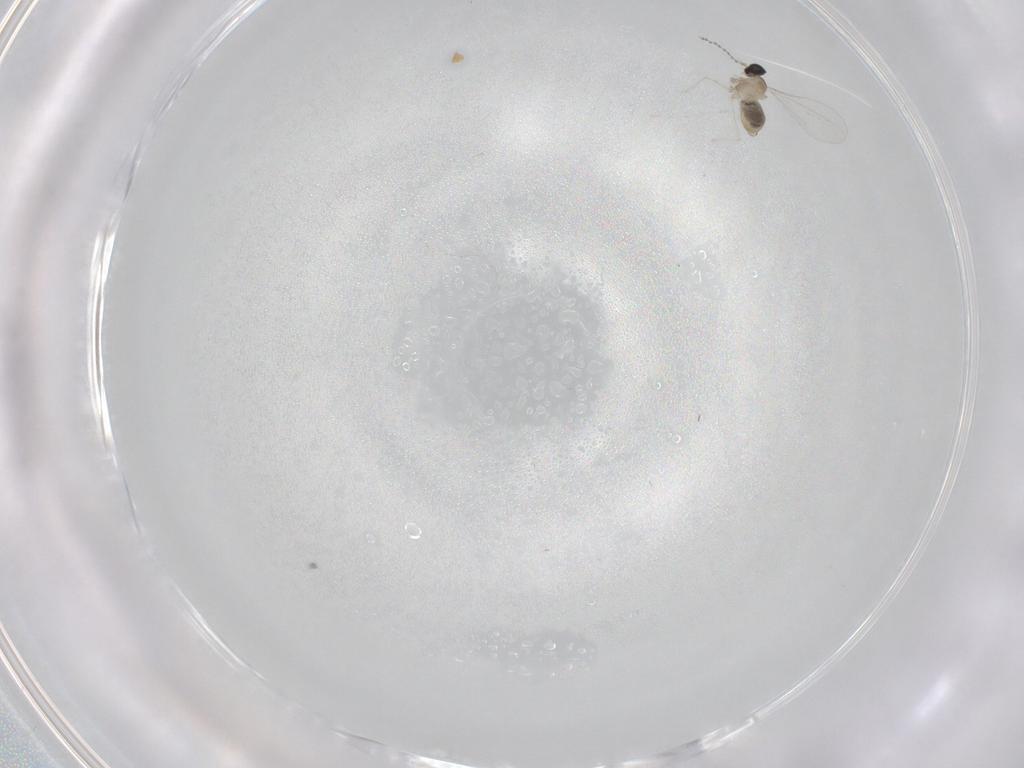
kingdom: Animalia
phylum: Arthropoda
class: Insecta
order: Diptera
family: Cecidomyiidae
